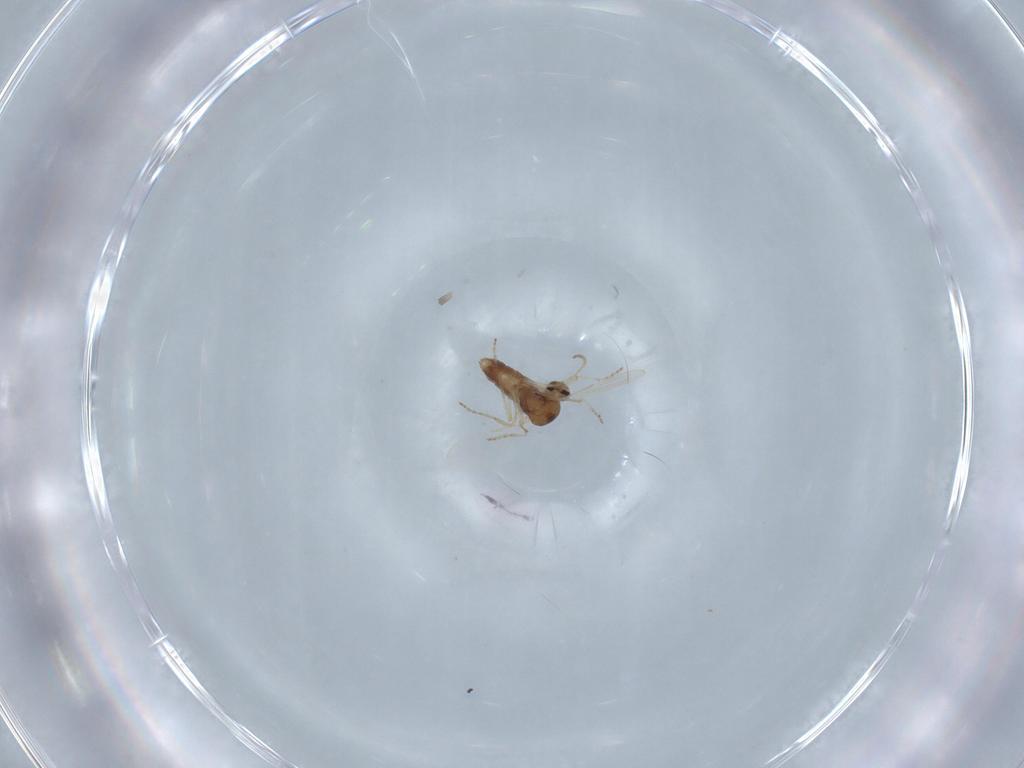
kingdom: Animalia
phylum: Arthropoda
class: Insecta
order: Diptera
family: Ceratopogonidae
